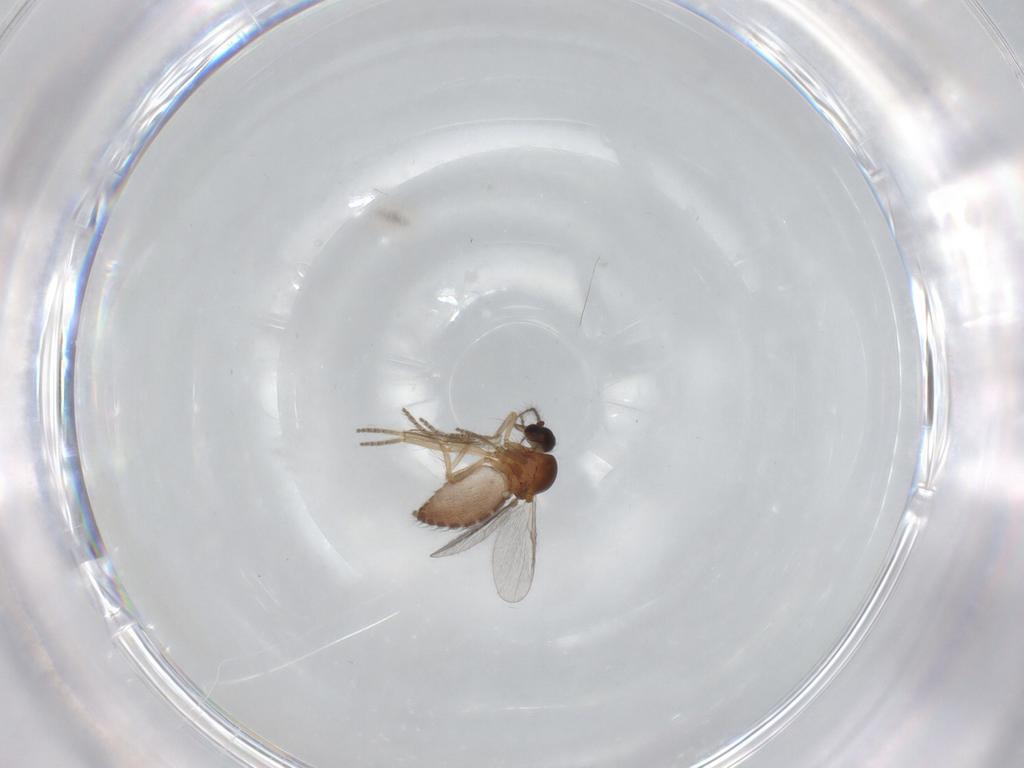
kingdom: Animalia
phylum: Arthropoda
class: Insecta
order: Diptera
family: Ceratopogonidae
